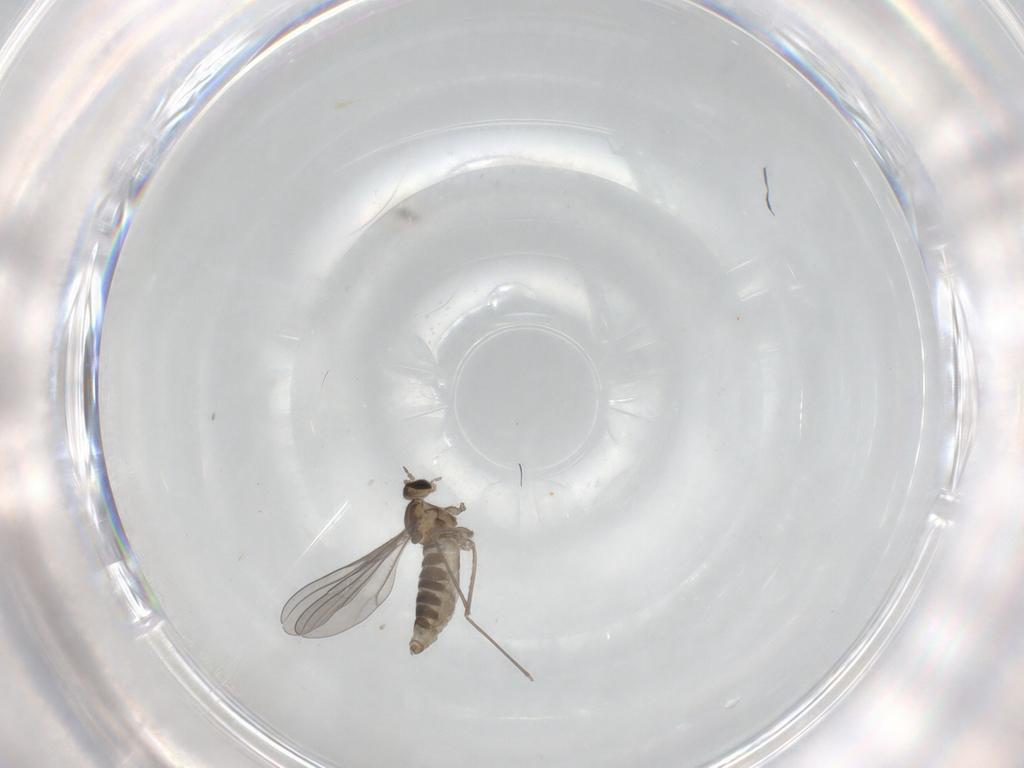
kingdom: Animalia
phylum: Arthropoda
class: Insecta
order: Diptera
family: Cecidomyiidae
